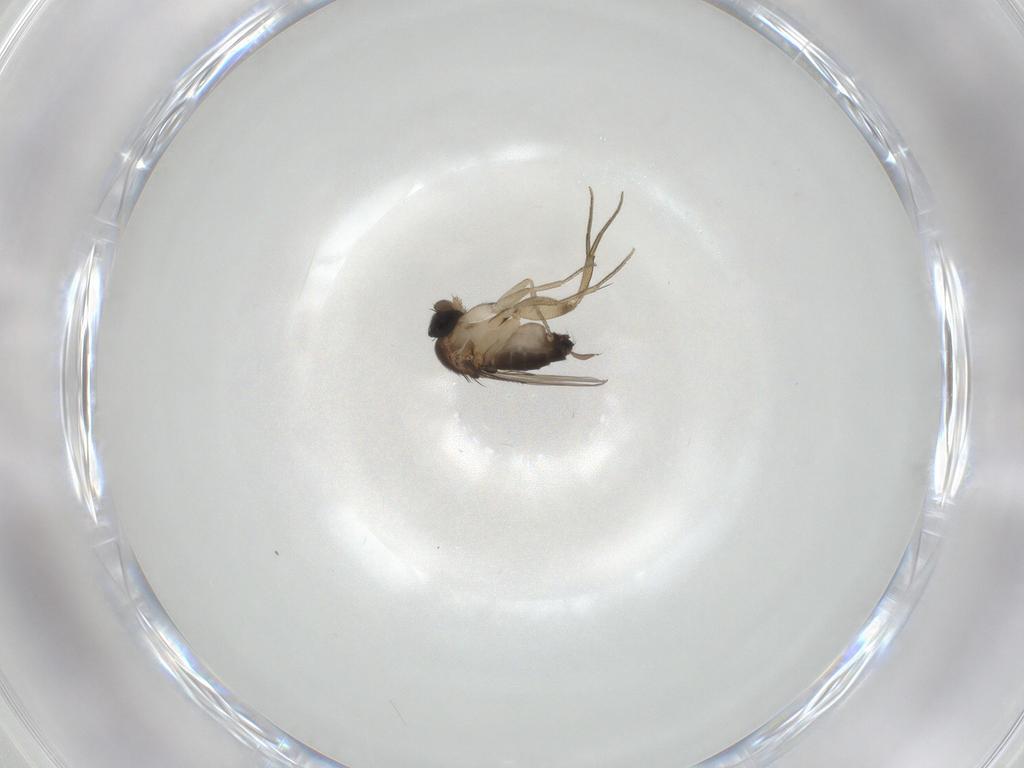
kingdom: Animalia
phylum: Arthropoda
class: Insecta
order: Diptera
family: Phoridae
